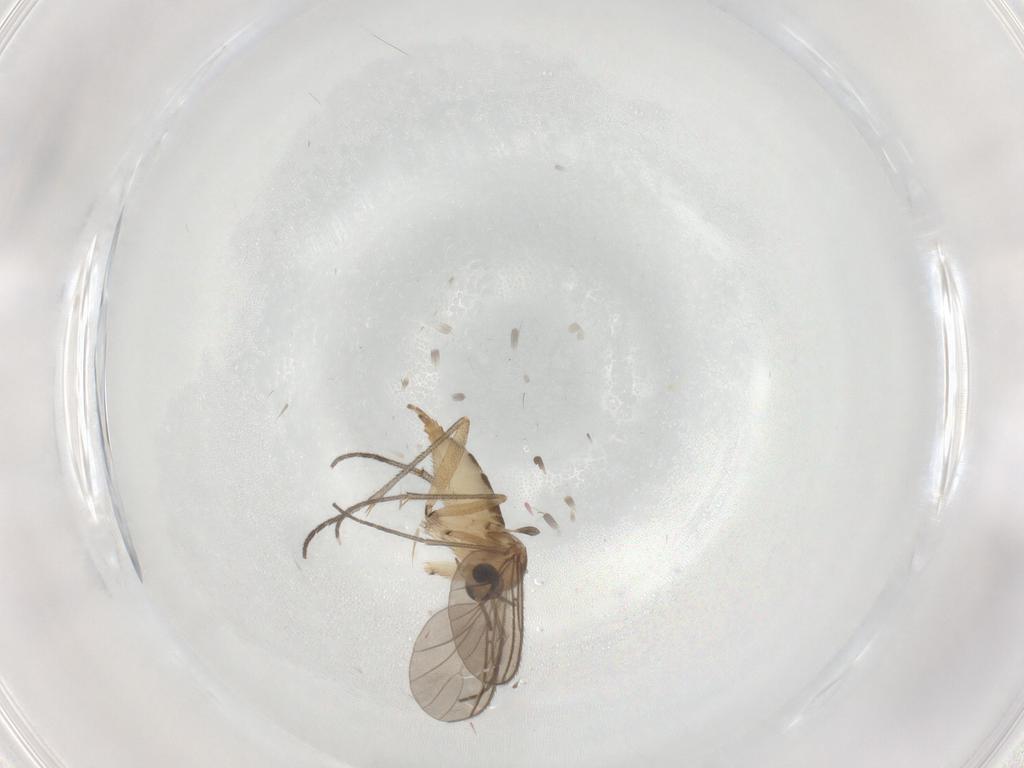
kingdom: Animalia
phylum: Arthropoda
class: Insecta
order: Diptera
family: Sciaridae
